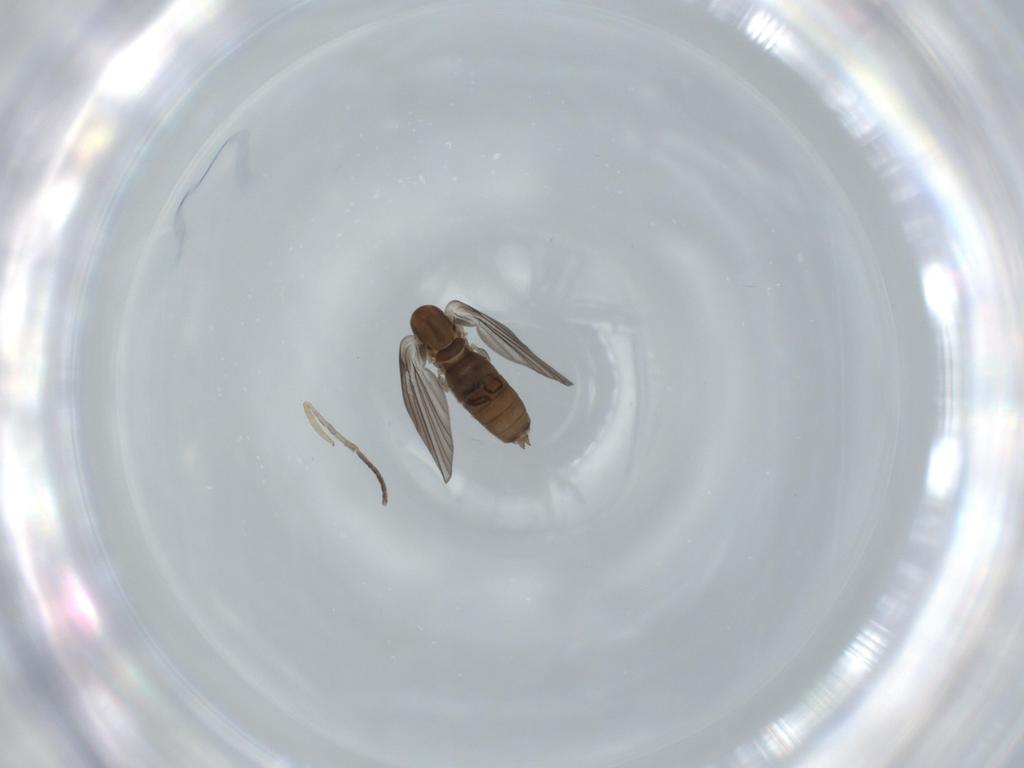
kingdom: Animalia
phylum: Arthropoda
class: Insecta
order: Diptera
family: Psychodidae
